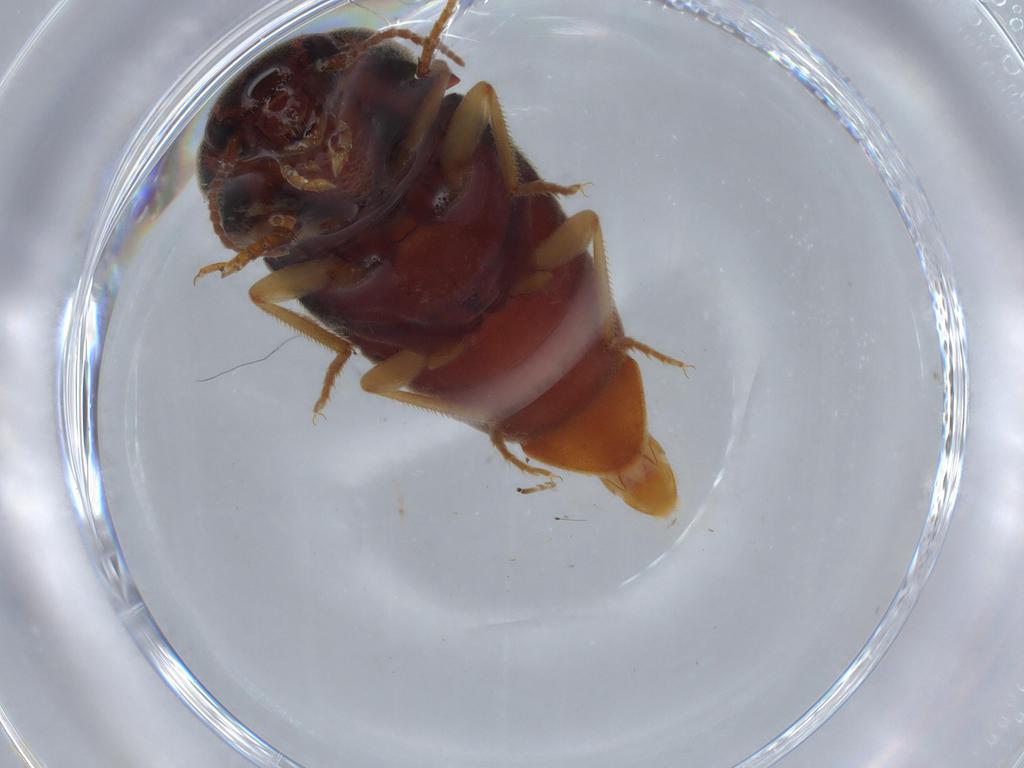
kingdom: Animalia
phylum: Arthropoda
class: Insecta
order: Coleoptera
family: Elateridae
